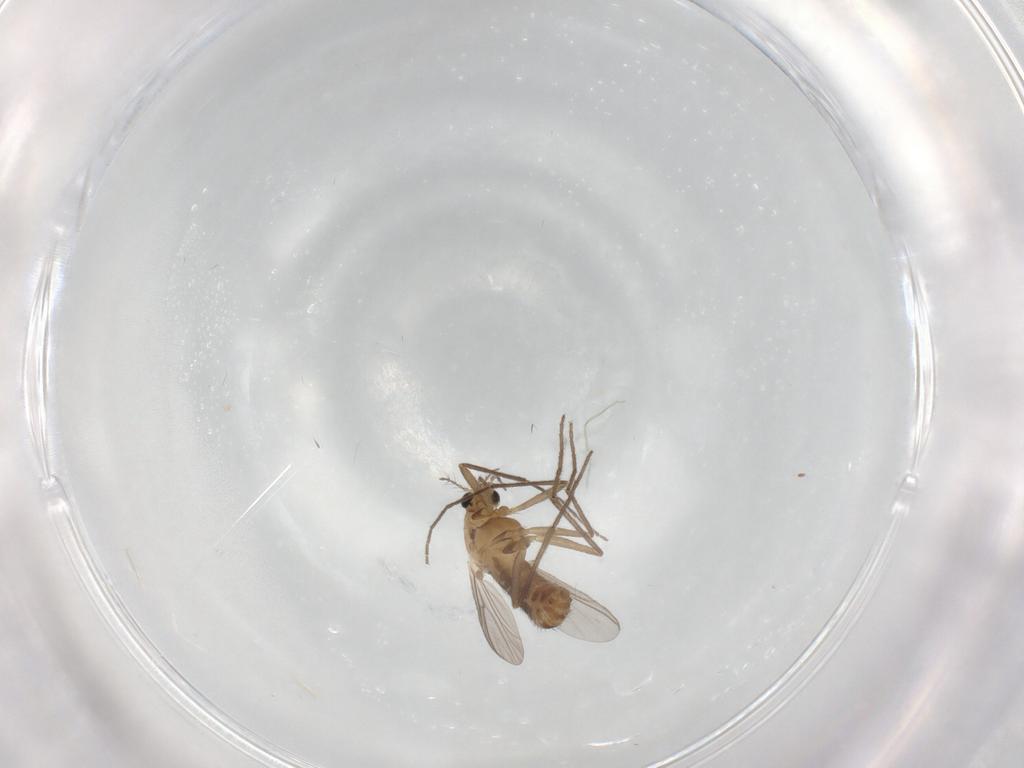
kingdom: Animalia
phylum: Arthropoda
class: Insecta
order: Diptera
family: Chironomidae
